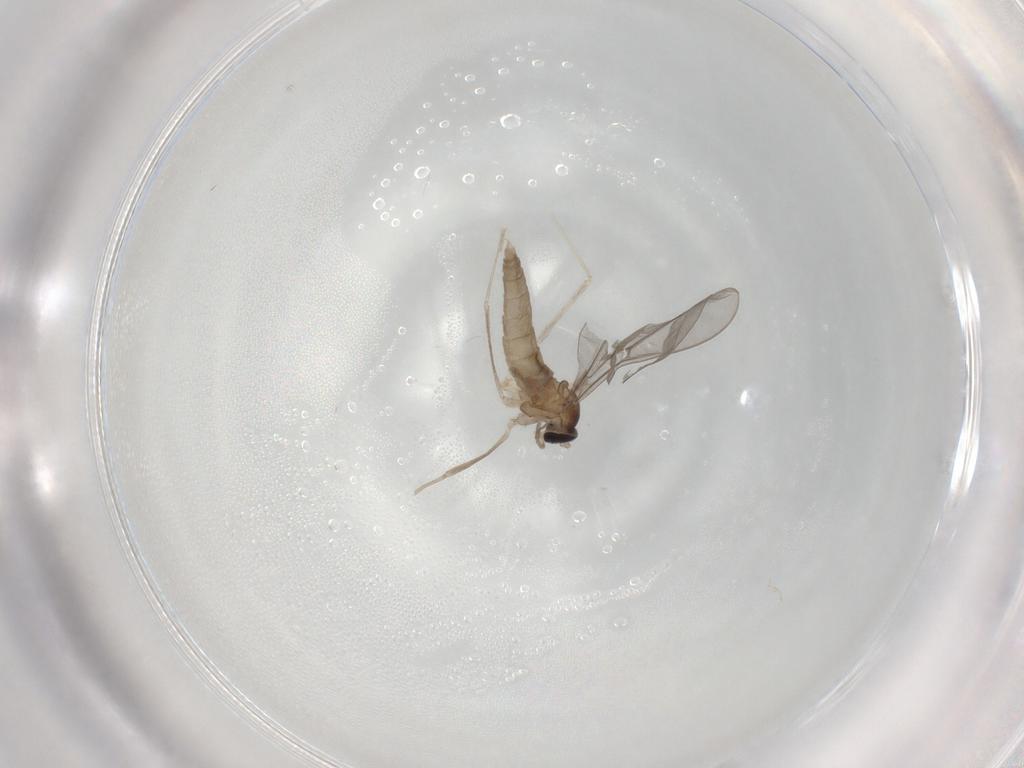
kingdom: Animalia
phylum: Arthropoda
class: Insecta
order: Diptera
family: Cecidomyiidae
